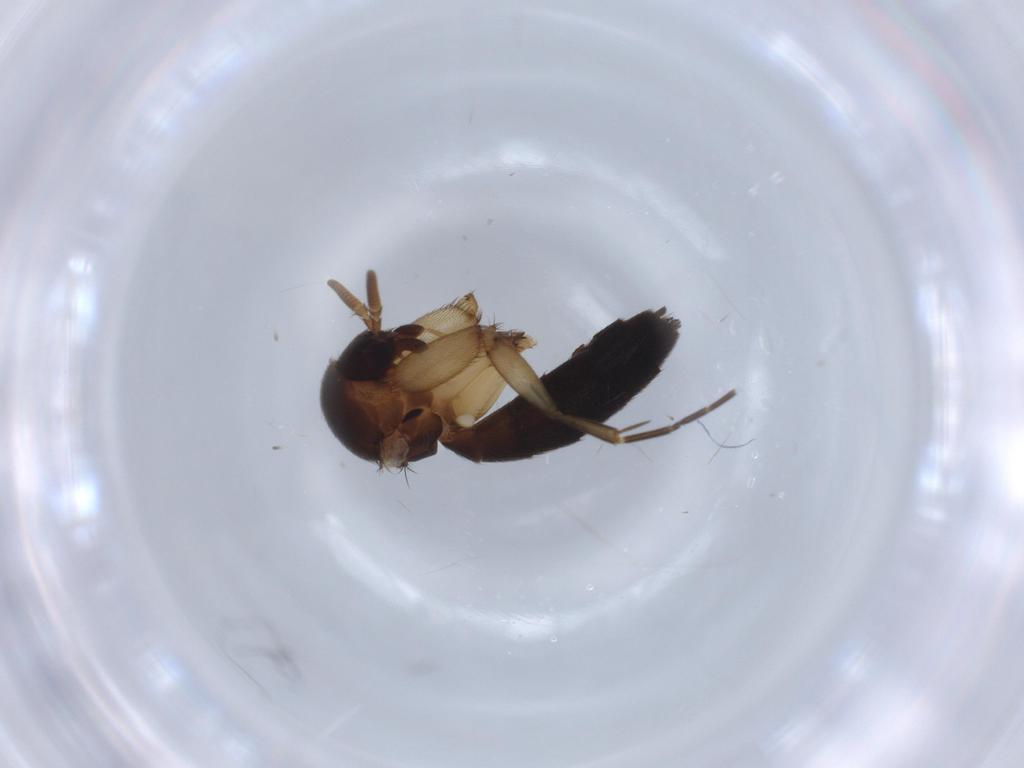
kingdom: Animalia
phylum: Arthropoda
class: Insecta
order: Diptera
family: Mycetophilidae
